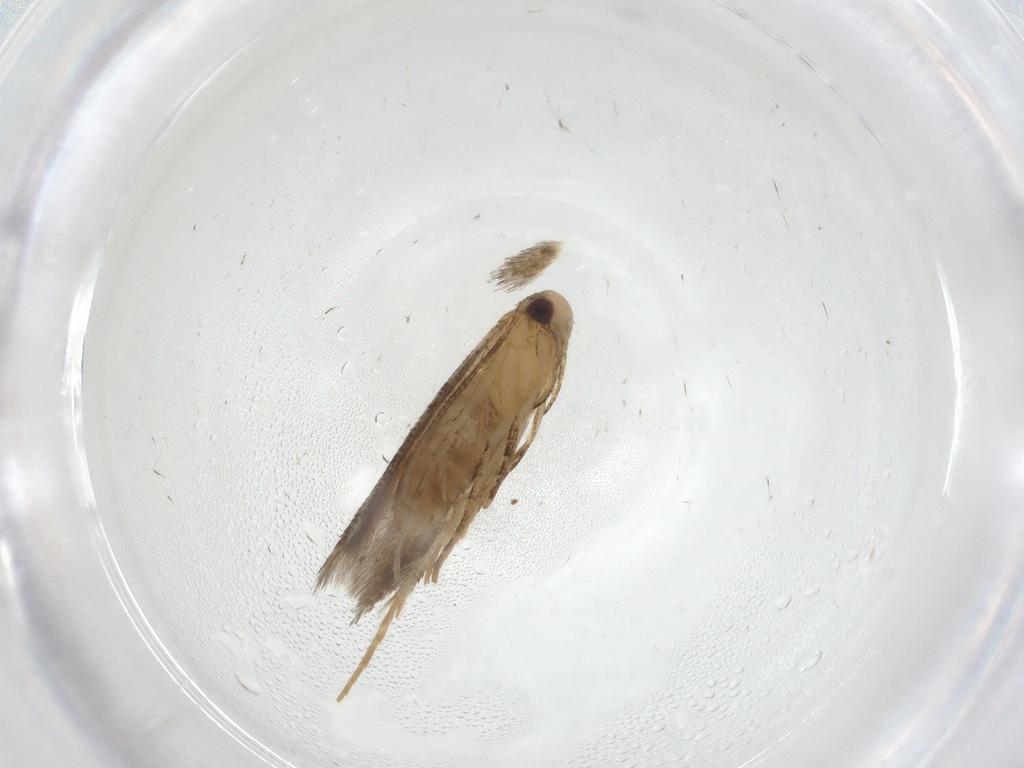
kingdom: Animalia
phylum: Arthropoda
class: Insecta
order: Lepidoptera
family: Cosmopterigidae
